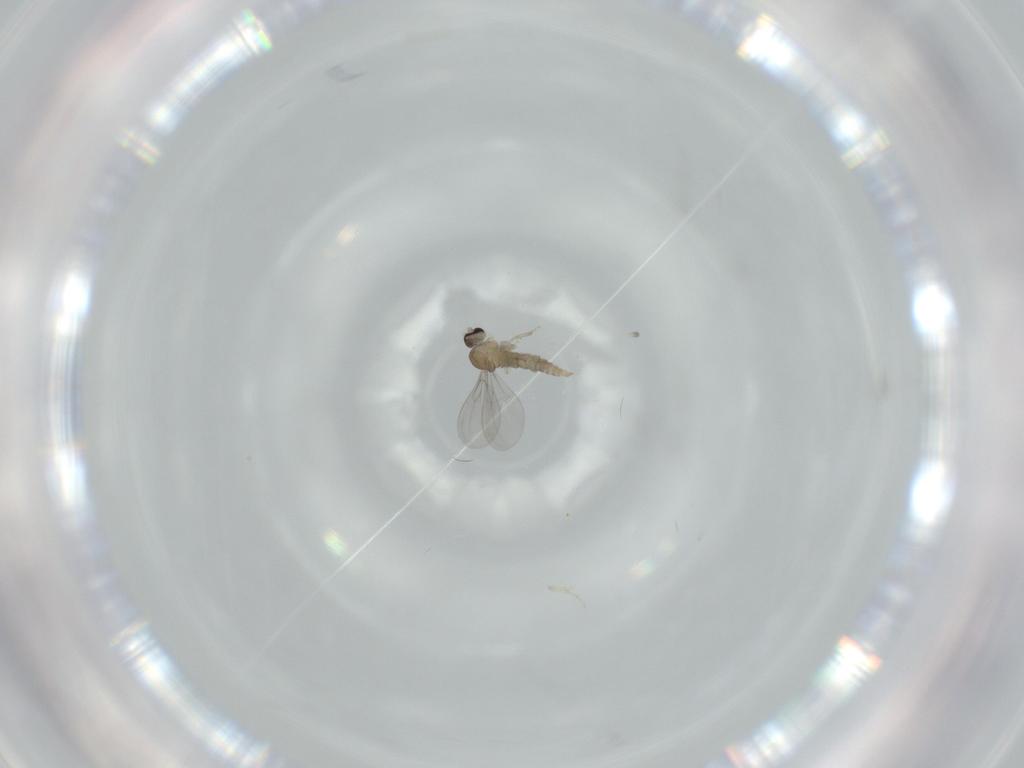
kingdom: Animalia
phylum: Arthropoda
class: Insecta
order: Diptera
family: Cecidomyiidae
